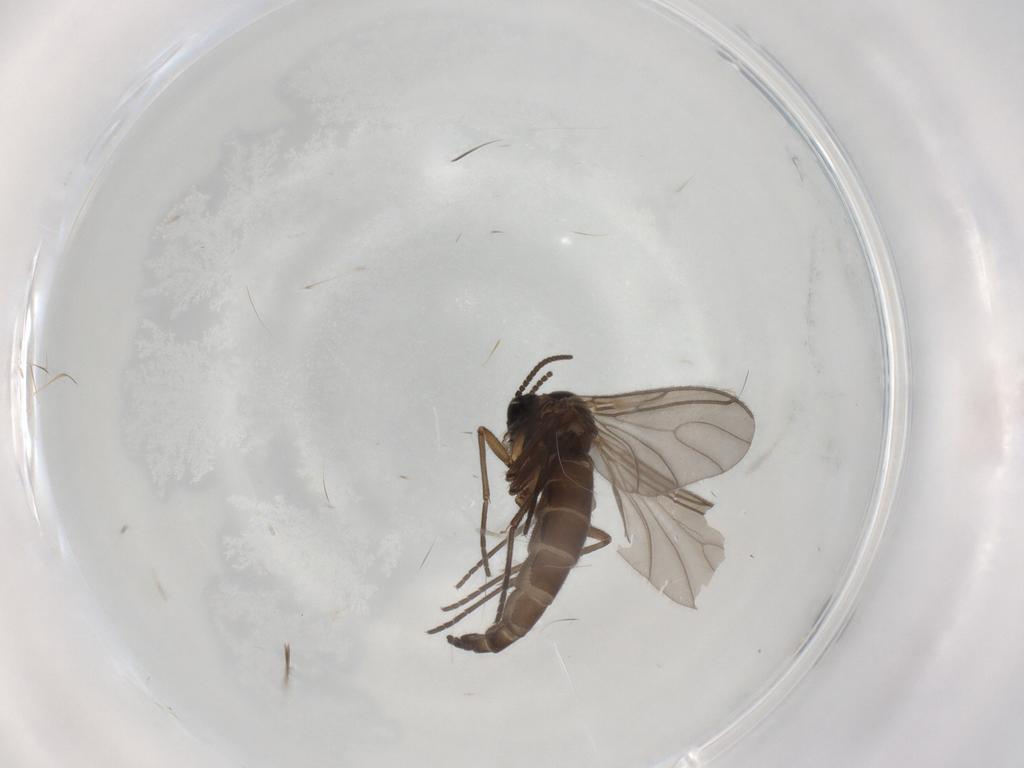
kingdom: Animalia
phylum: Arthropoda
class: Insecta
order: Diptera
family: Sciaridae
